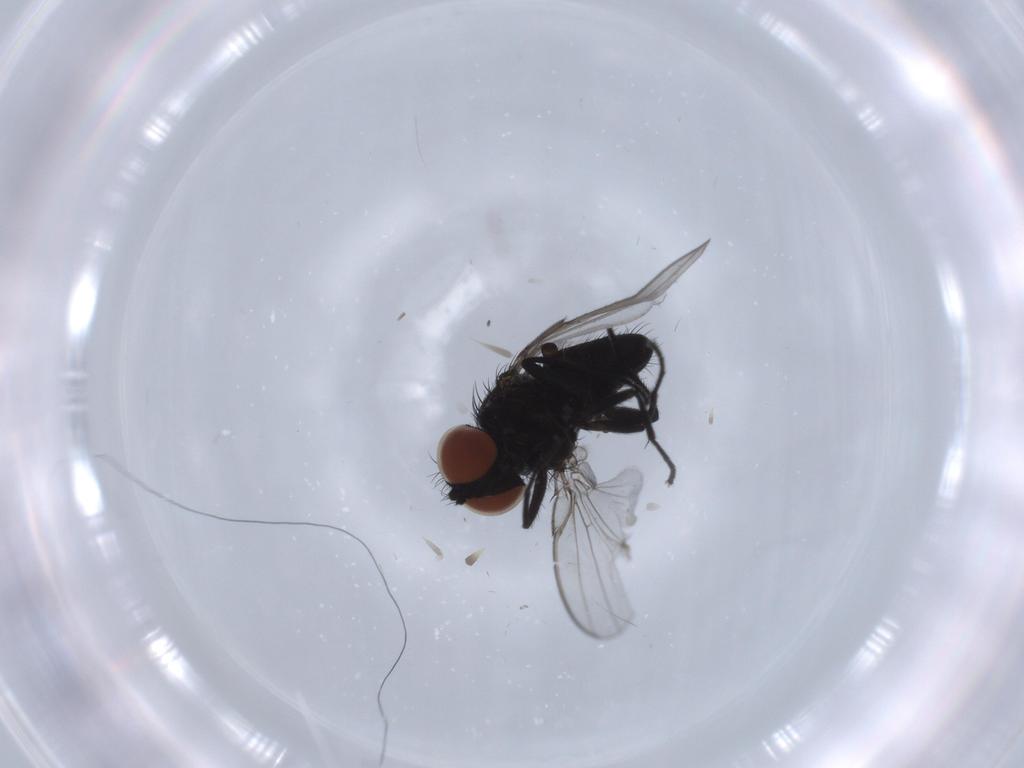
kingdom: Animalia
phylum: Arthropoda
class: Insecta
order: Diptera
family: Milichiidae
